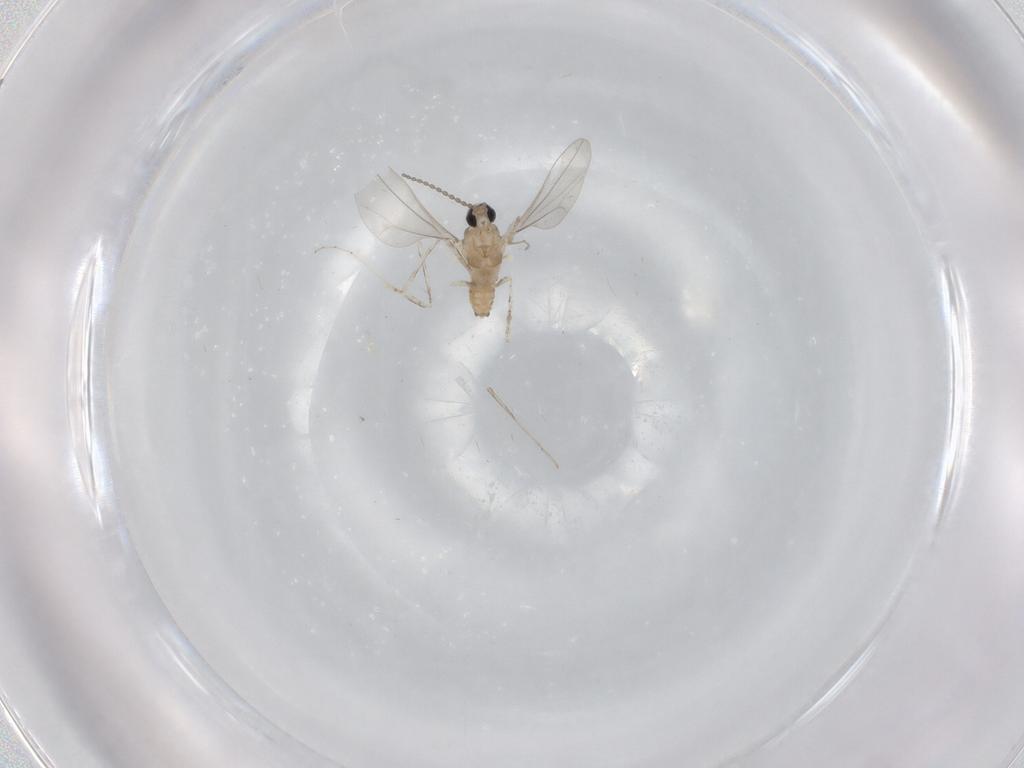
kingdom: Animalia
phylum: Arthropoda
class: Insecta
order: Diptera
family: Cecidomyiidae
